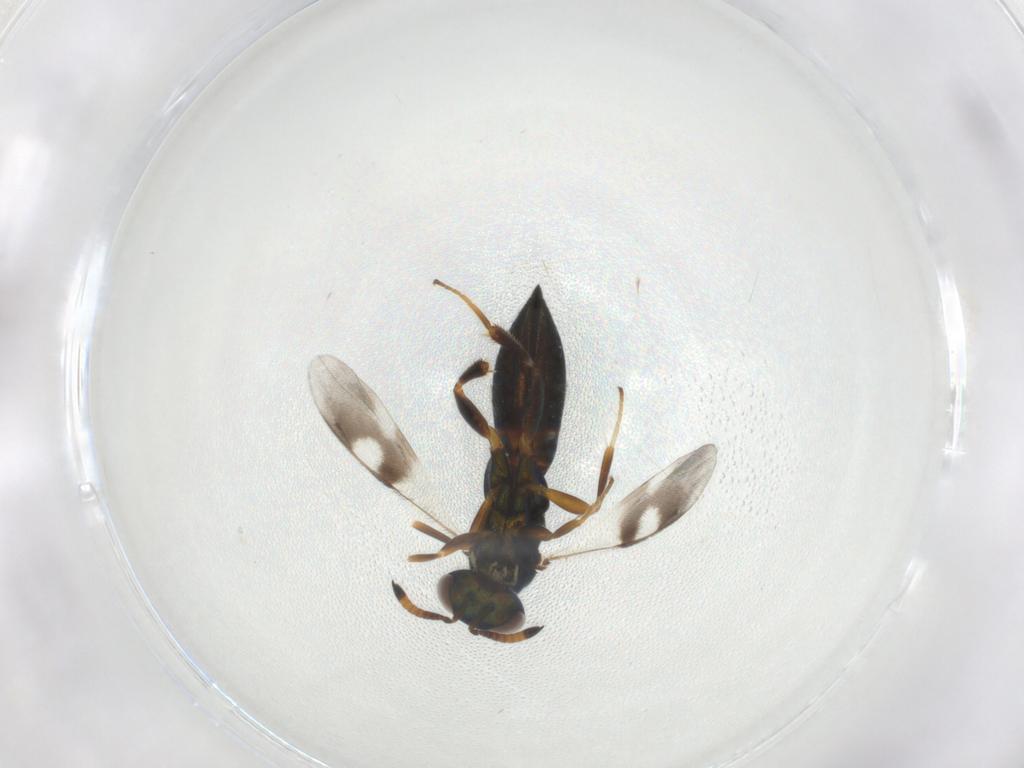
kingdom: Animalia
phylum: Arthropoda
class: Insecta
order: Hymenoptera
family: Cleonyminae
